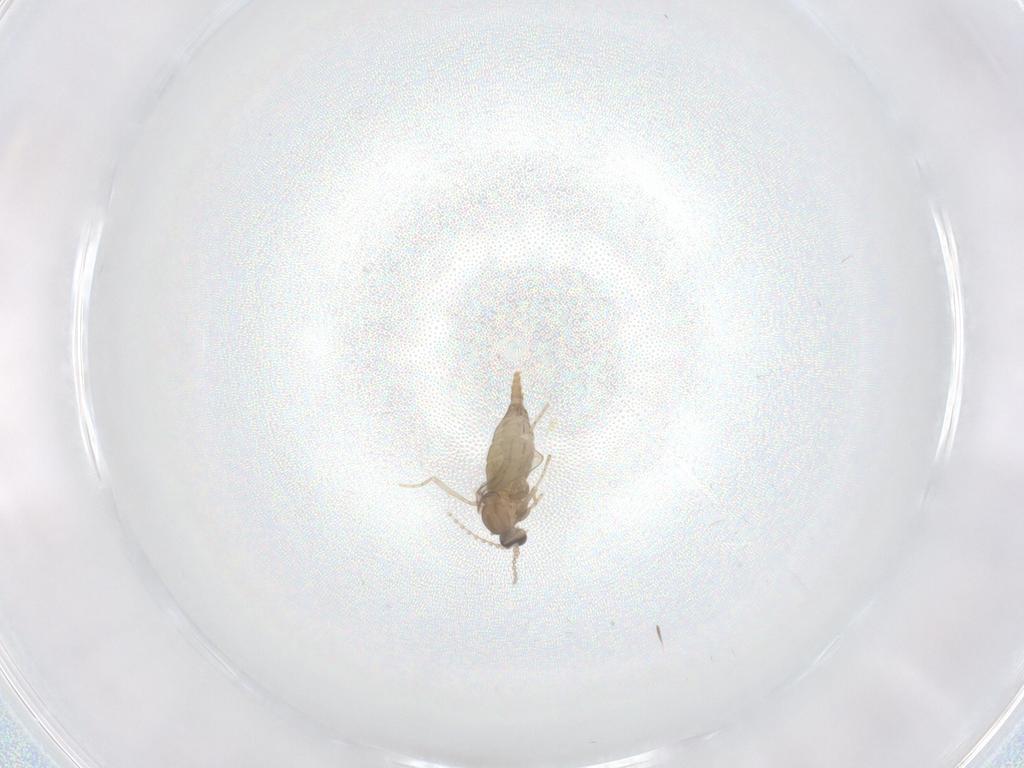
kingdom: Animalia
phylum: Arthropoda
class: Insecta
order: Diptera
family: Cecidomyiidae
